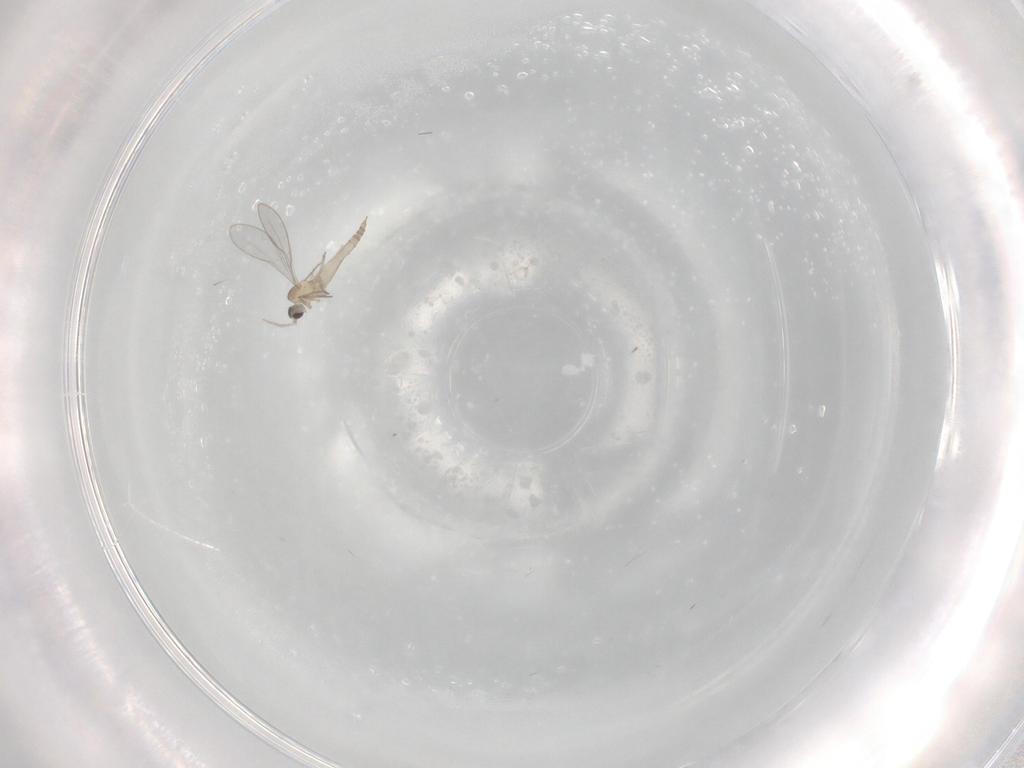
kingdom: Animalia
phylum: Arthropoda
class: Insecta
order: Diptera
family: Cecidomyiidae
